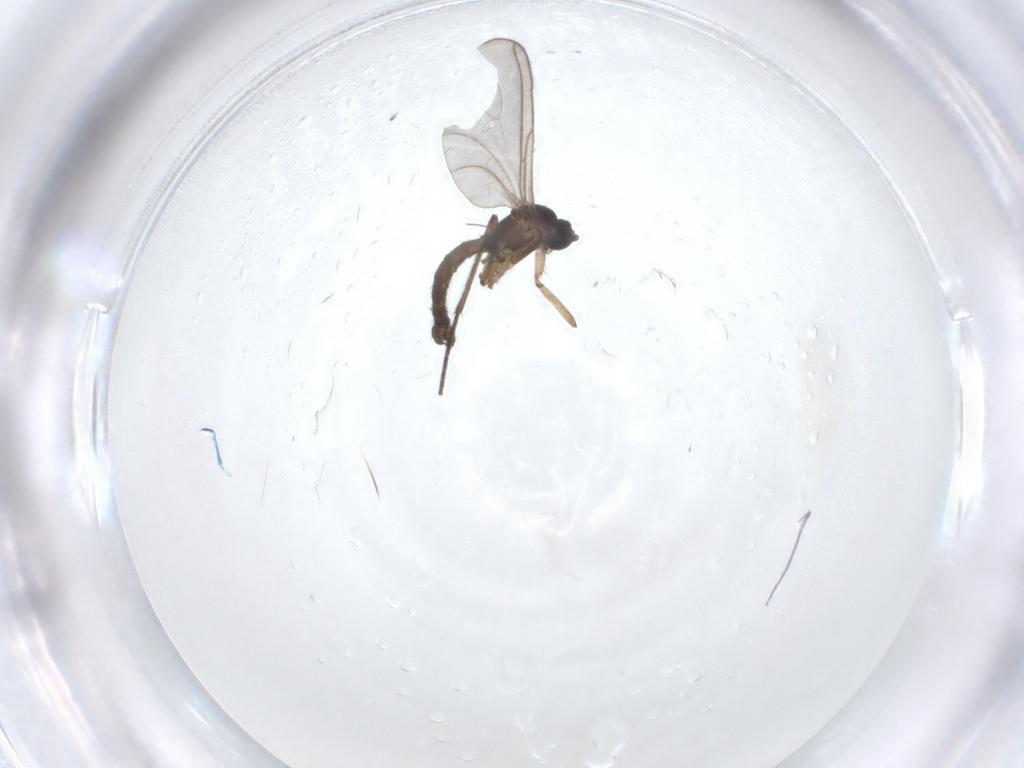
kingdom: Animalia
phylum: Arthropoda
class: Insecta
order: Diptera
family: Sciaridae
